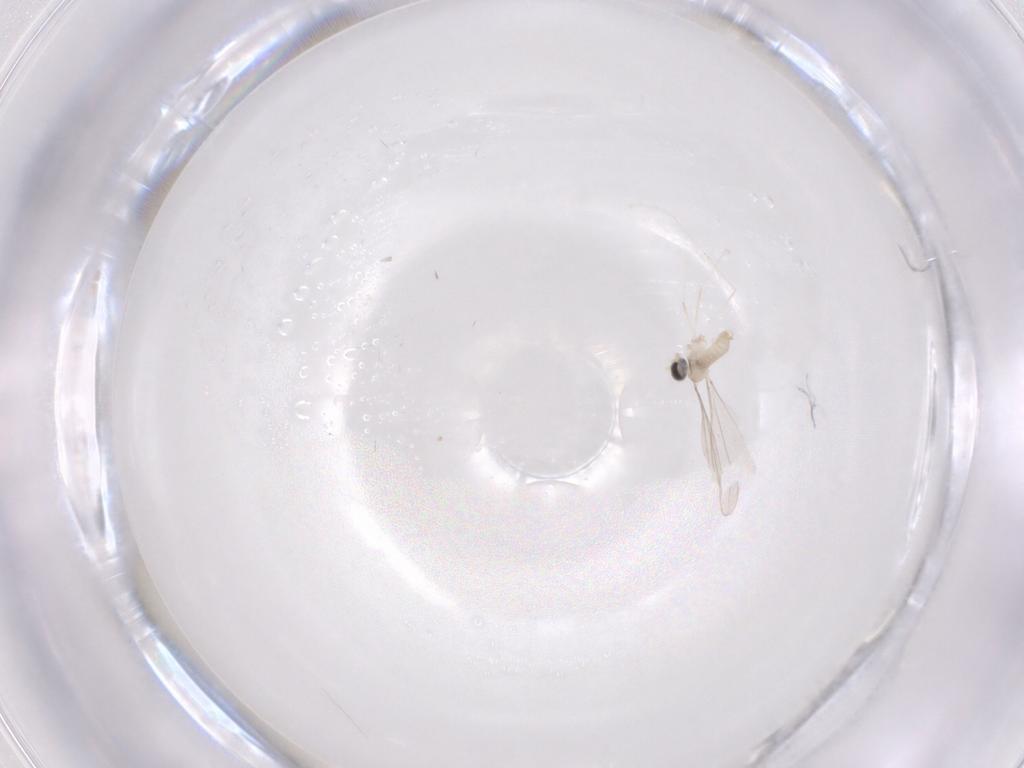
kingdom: Animalia
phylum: Arthropoda
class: Insecta
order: Diptera
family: Cecidomyiidae
